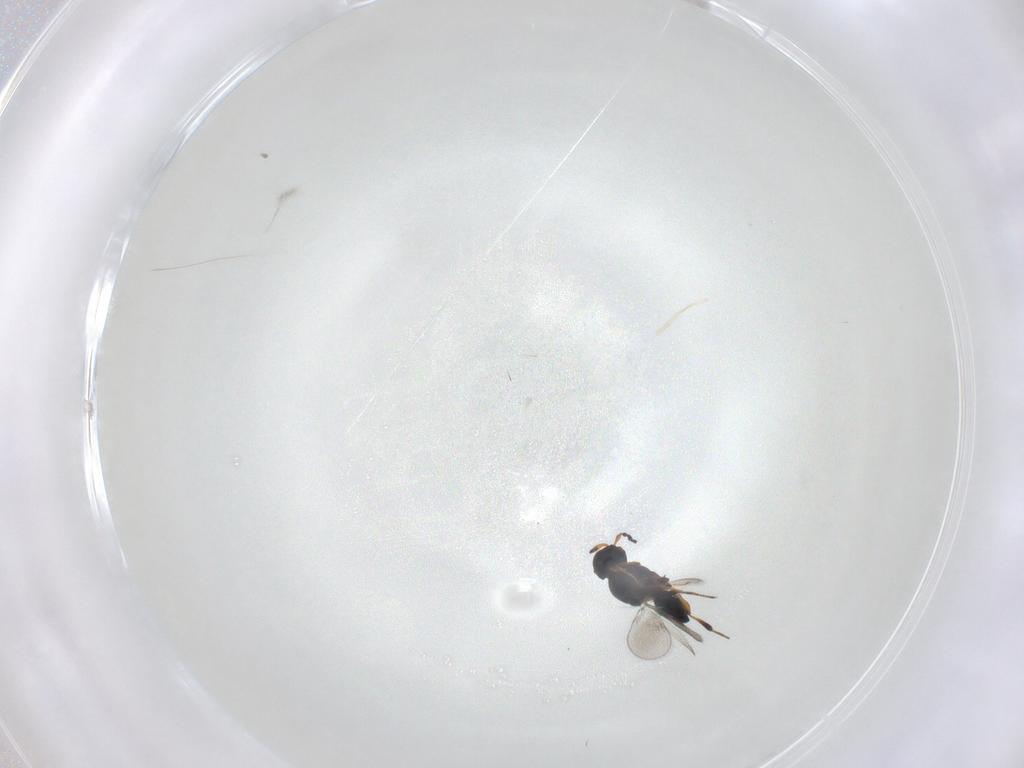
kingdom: Animalia
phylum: Arthropoda
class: Insecta
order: Hymenoptera
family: Platygastridae
